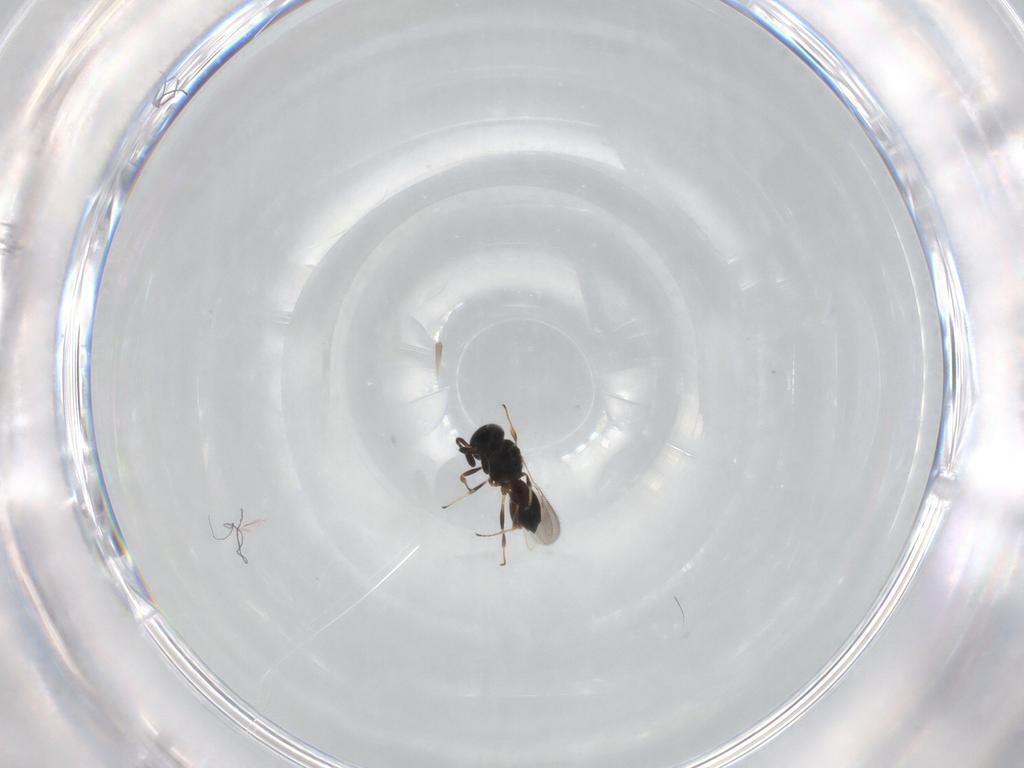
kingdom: Animalia
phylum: Arthropoda
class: Insecta
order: Hymenoptera
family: Scelionidae
